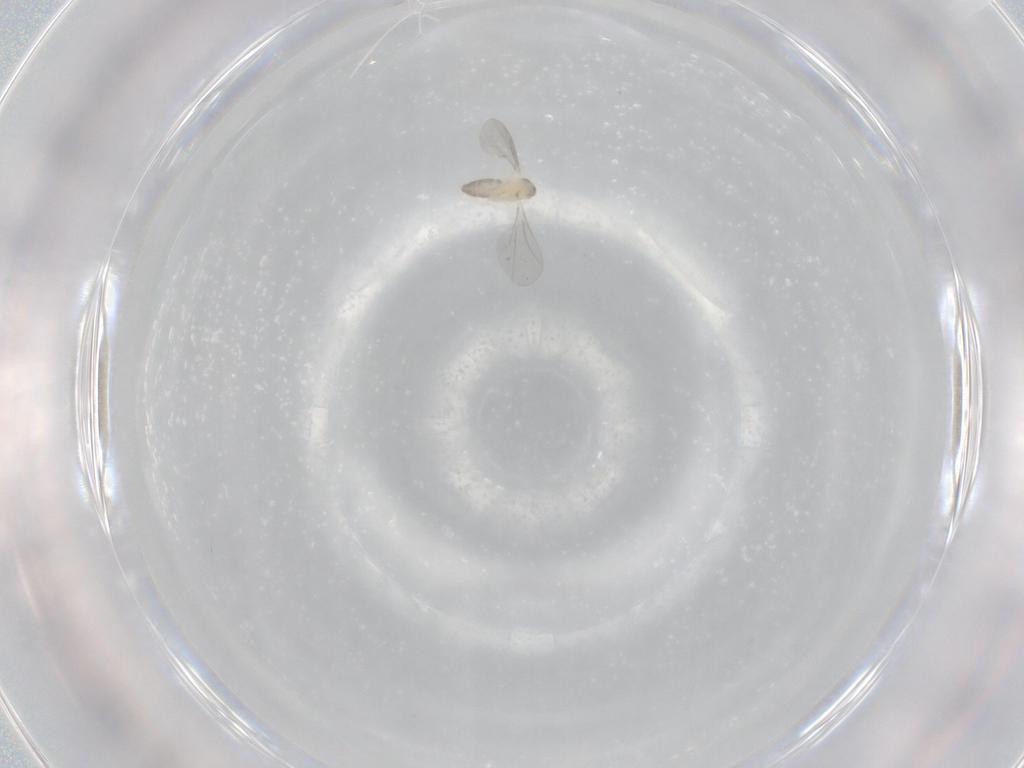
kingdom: Animalia
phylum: Arthropoda
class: Insecta
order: Diptera
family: Cecidomyiidae
